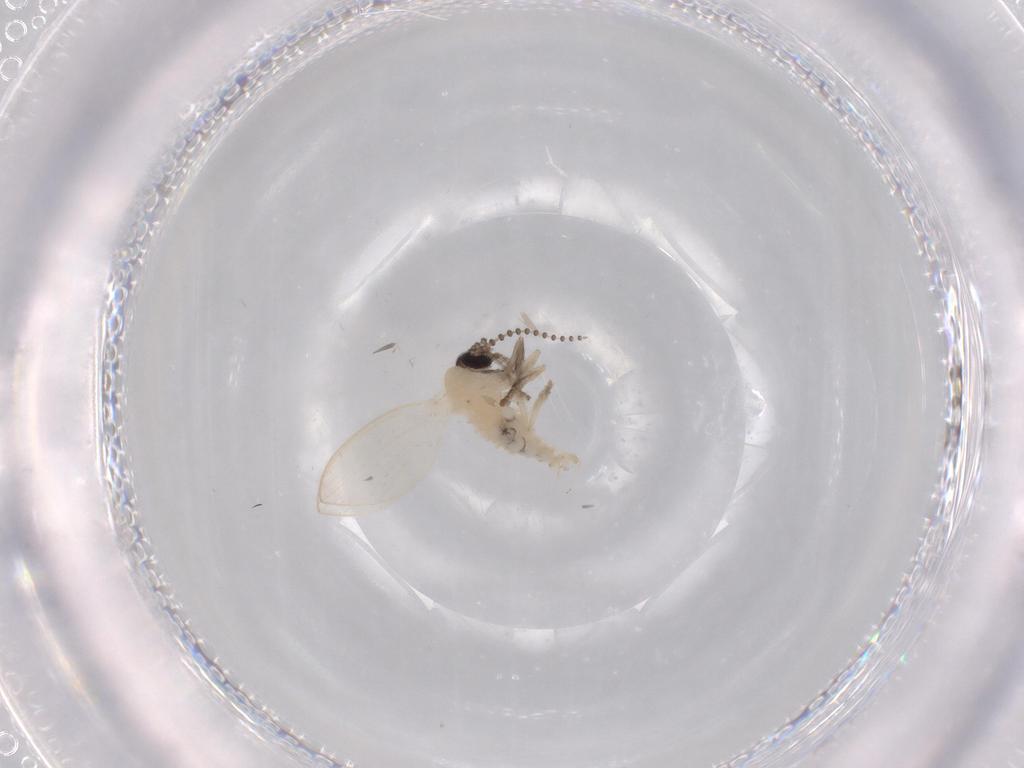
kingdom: Animalia
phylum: Arthropoda
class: Insecta
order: Diptera
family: Psychodidae
